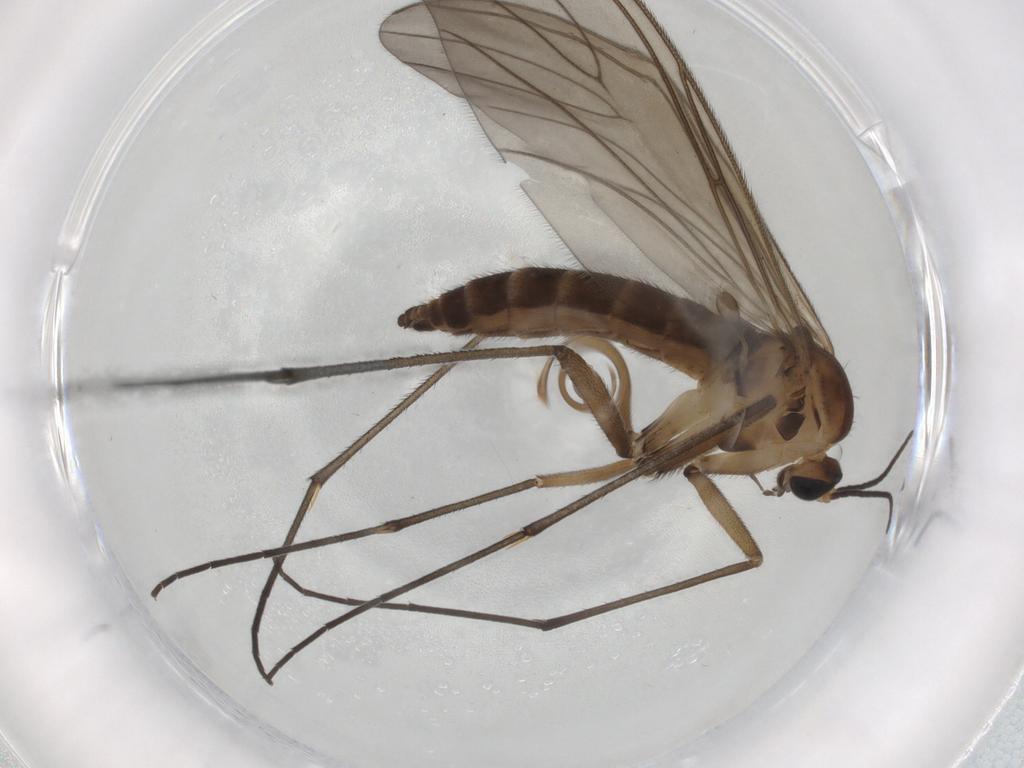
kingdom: Animalia
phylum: Arthropoda
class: Insecta
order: Diptera
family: Sciaridae
